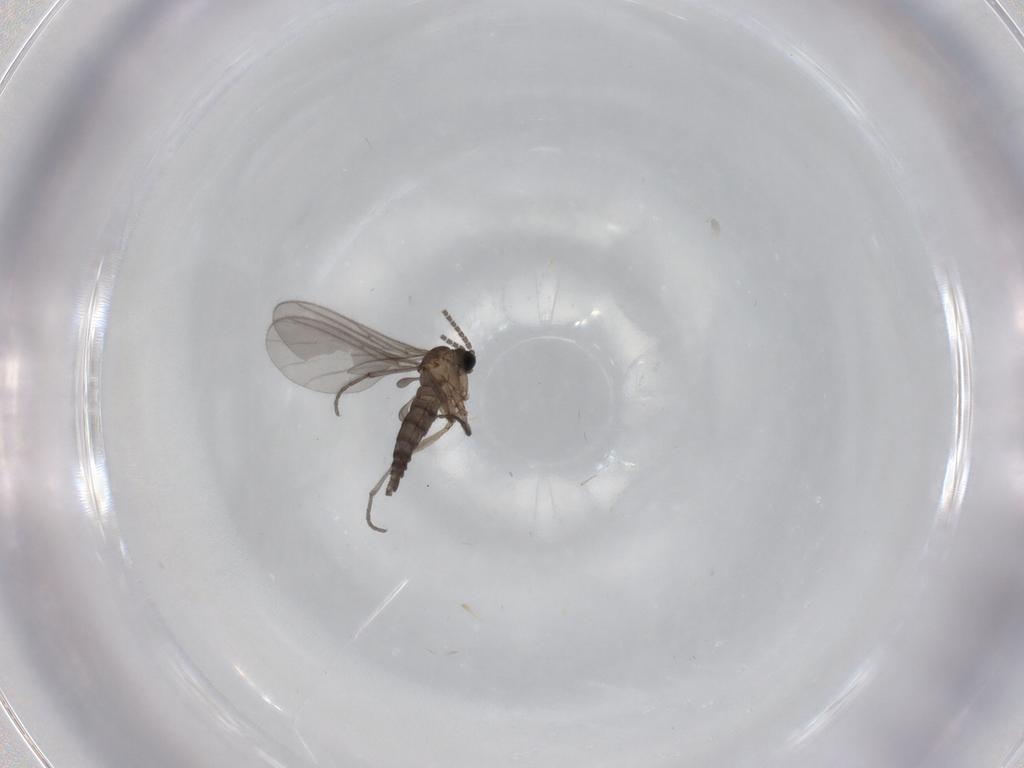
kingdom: Animalia
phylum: Arthropoda
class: Insecta
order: Diptera
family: Sciaridae
